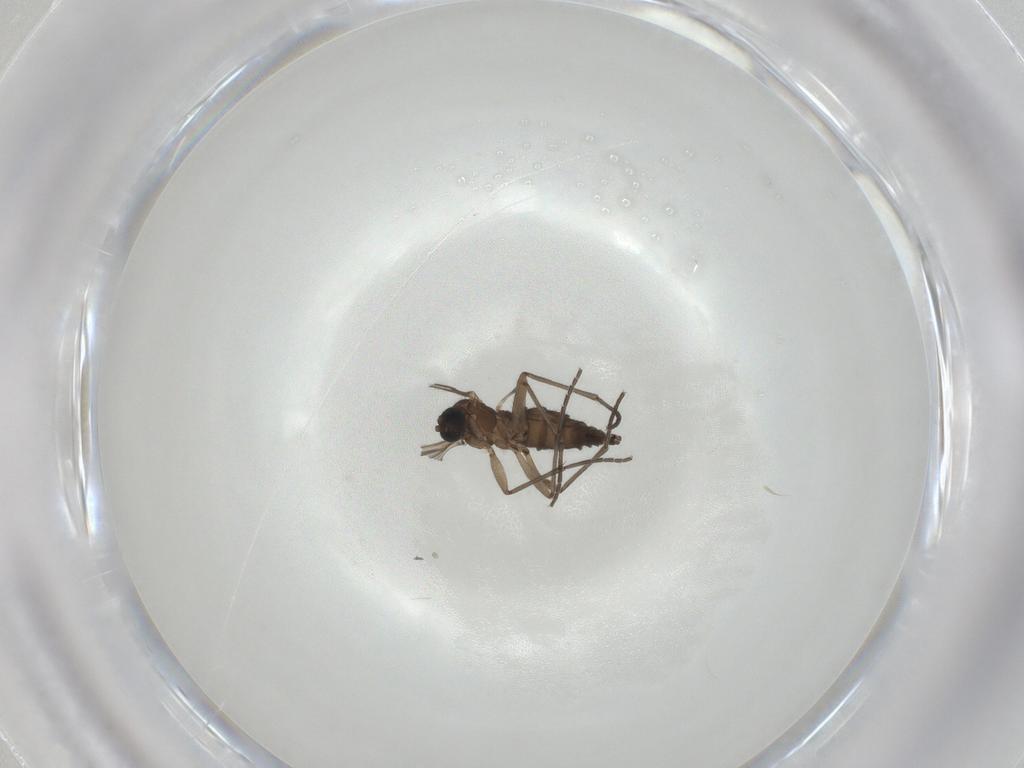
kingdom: Animalia
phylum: Arthropoda
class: Insecta
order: Diptera
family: Sciaridae
